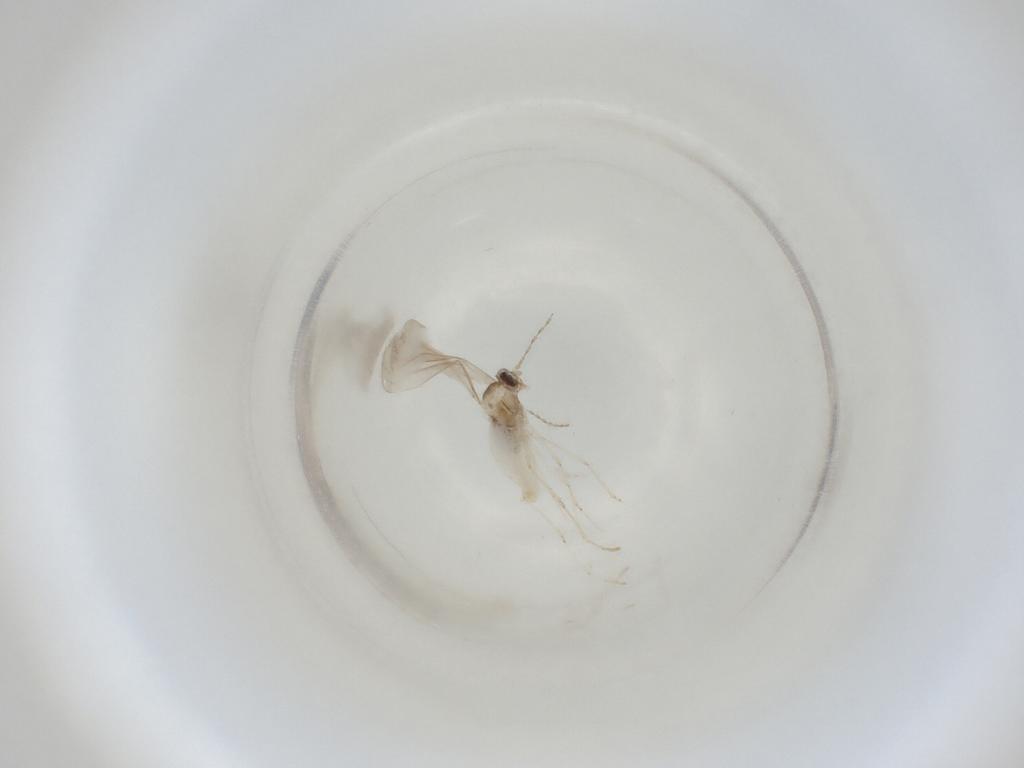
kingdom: Animalia
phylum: Arthropoda
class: Insecta
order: Diptera
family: Cecidomyiidae
